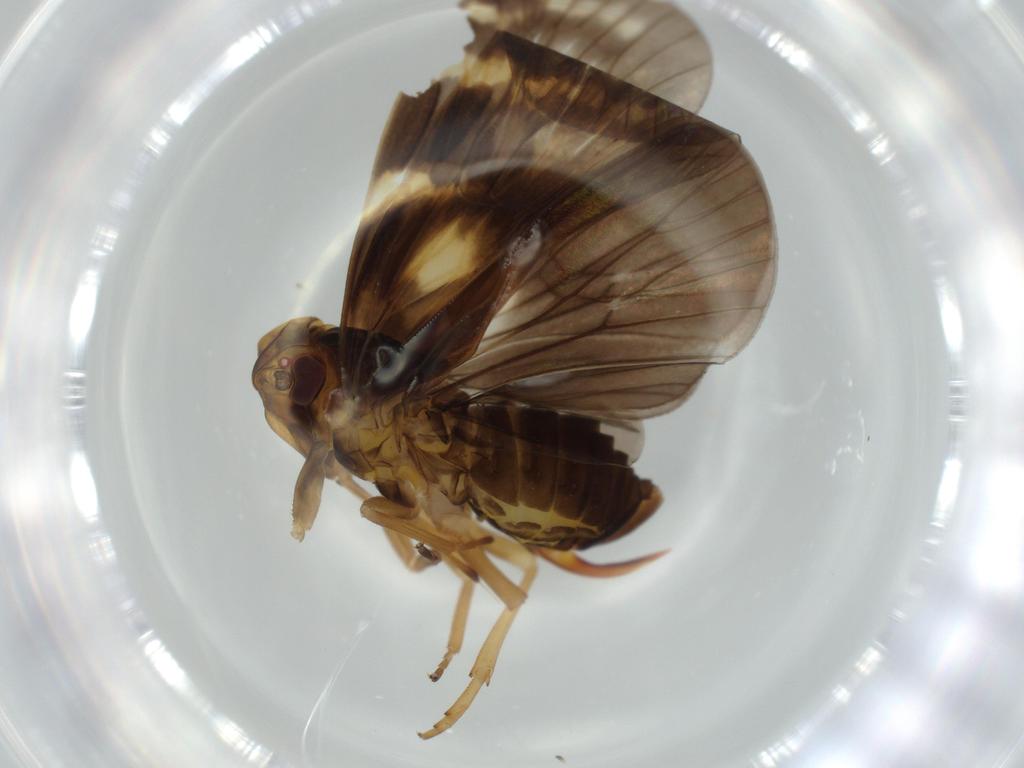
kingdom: Animalia
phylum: Arthropoda
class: Insecta
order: Hemiptera
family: Cixiidae
